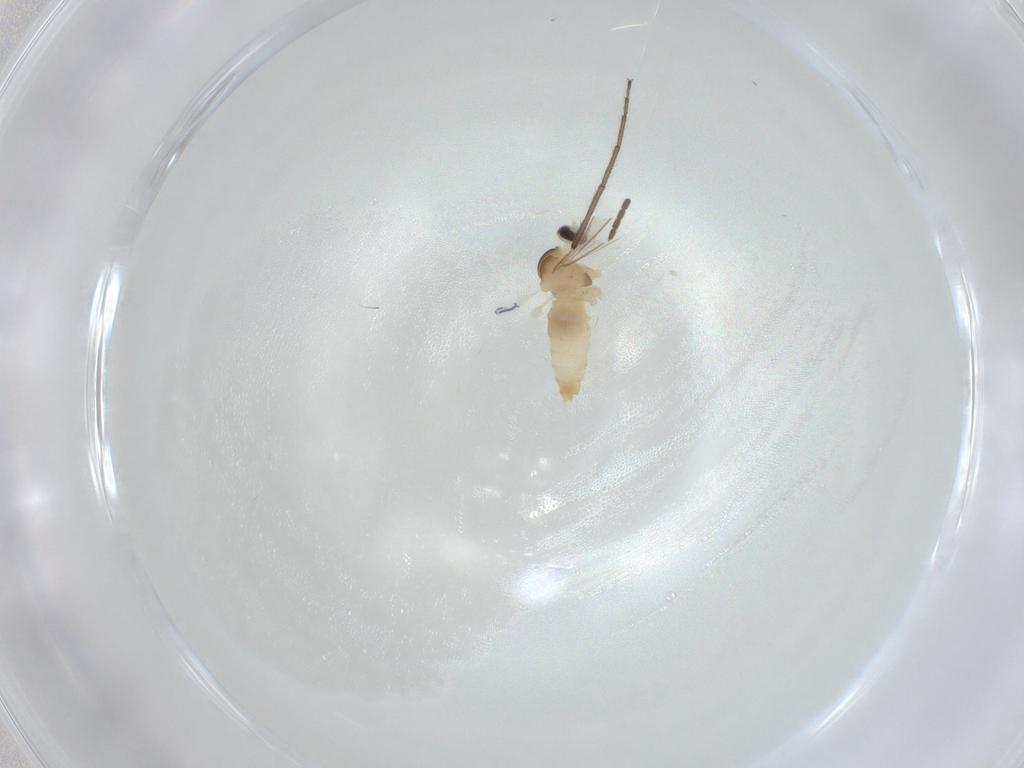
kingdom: Animalia
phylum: Arthropoda
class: Insecta
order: Diptera
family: Cecidomyiidae
